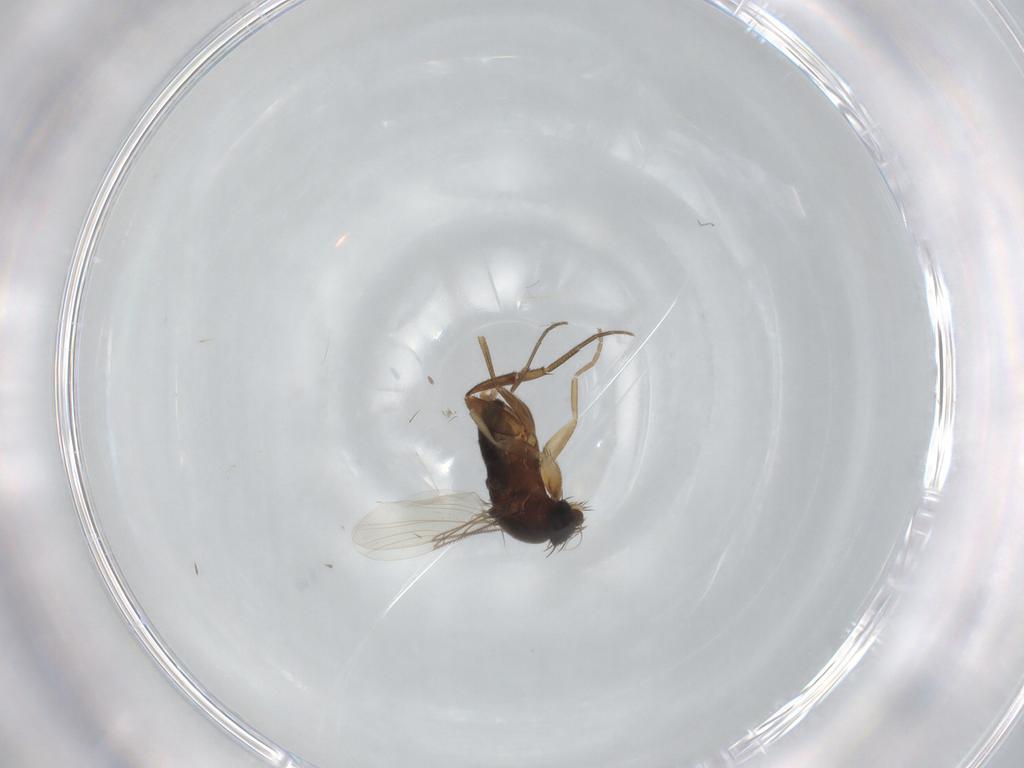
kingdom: Animalia
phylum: Arthropoda
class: Insecta
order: Diptera
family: Phoridae
